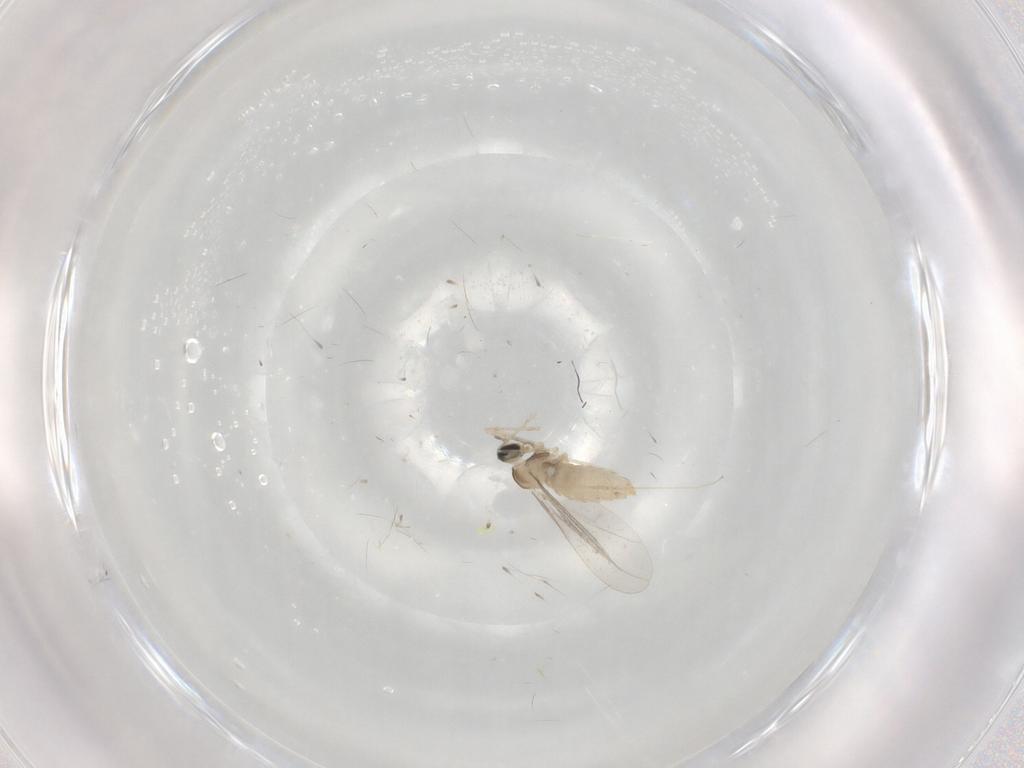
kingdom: Animalia
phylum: Arthropoda
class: Insecta
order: Diptera
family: Cecidomyiidae
